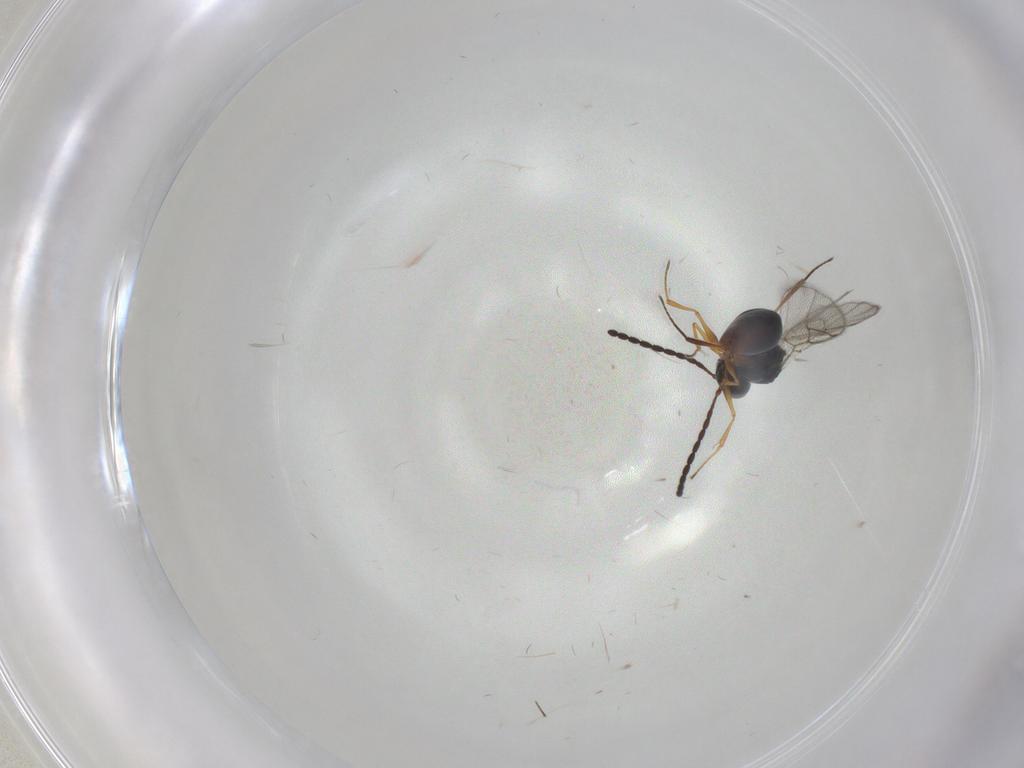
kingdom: Animalia
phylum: Arthropoda
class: Insecta
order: Hymenoptera
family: Figitidae
